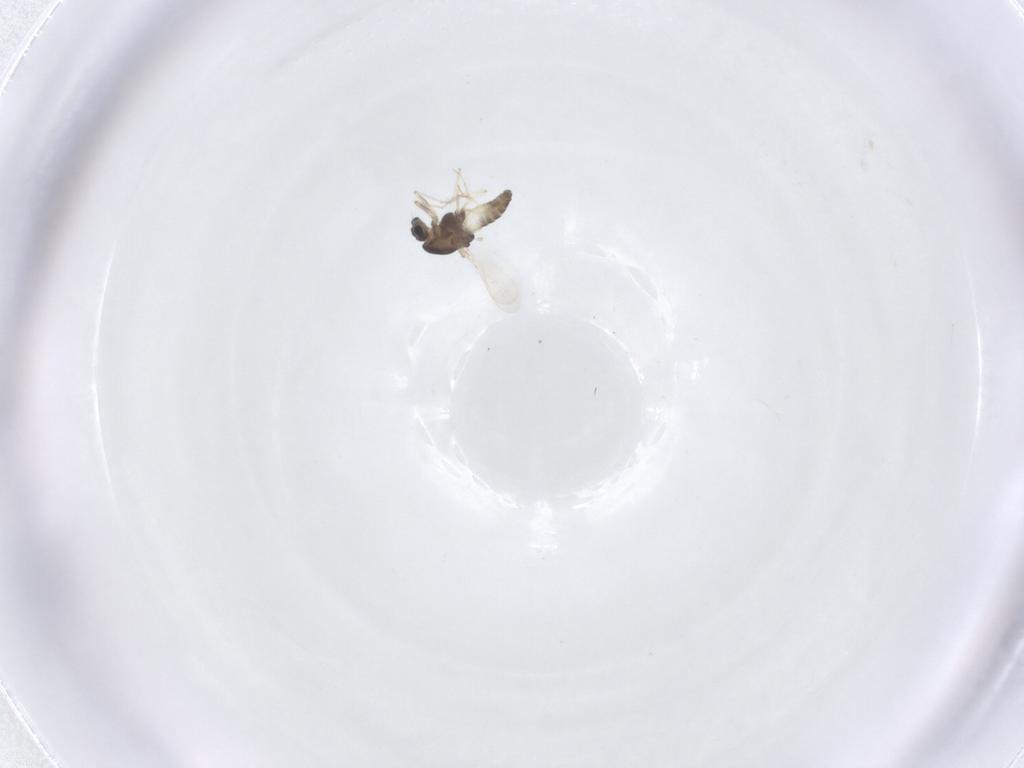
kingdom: Animalia
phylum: Arthropoda
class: Insecta
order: Diptera
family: Chironomidae
